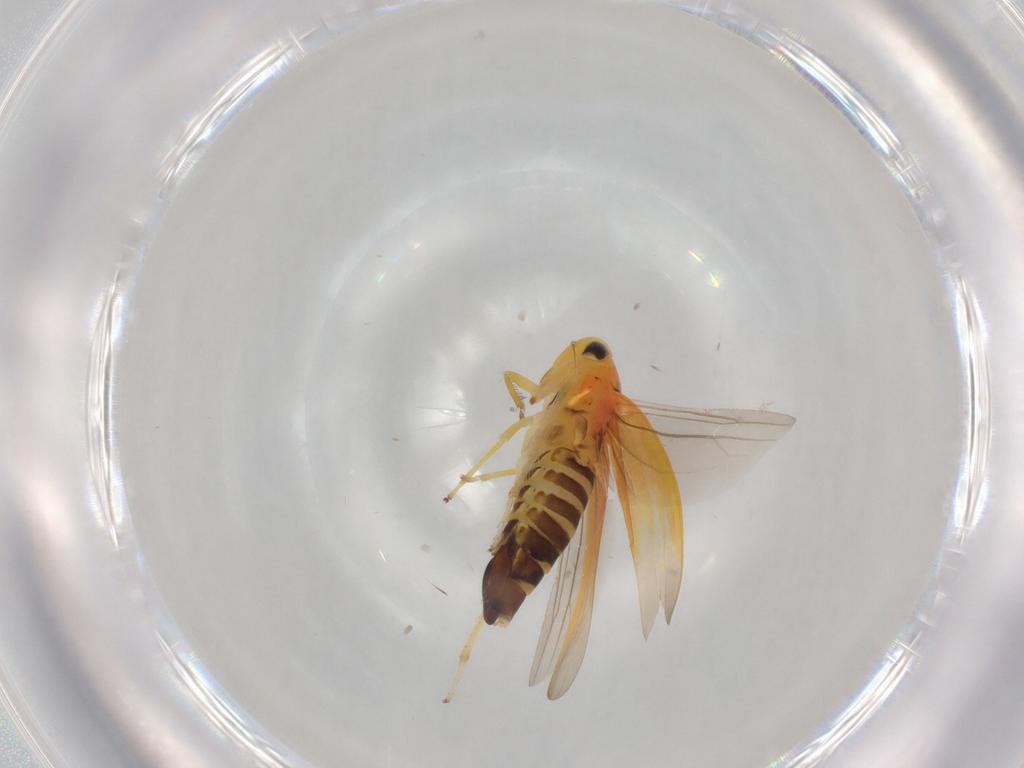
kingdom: Animalia
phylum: Arthropoda
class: Insecta
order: Hemiptera
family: Cicadellidae
